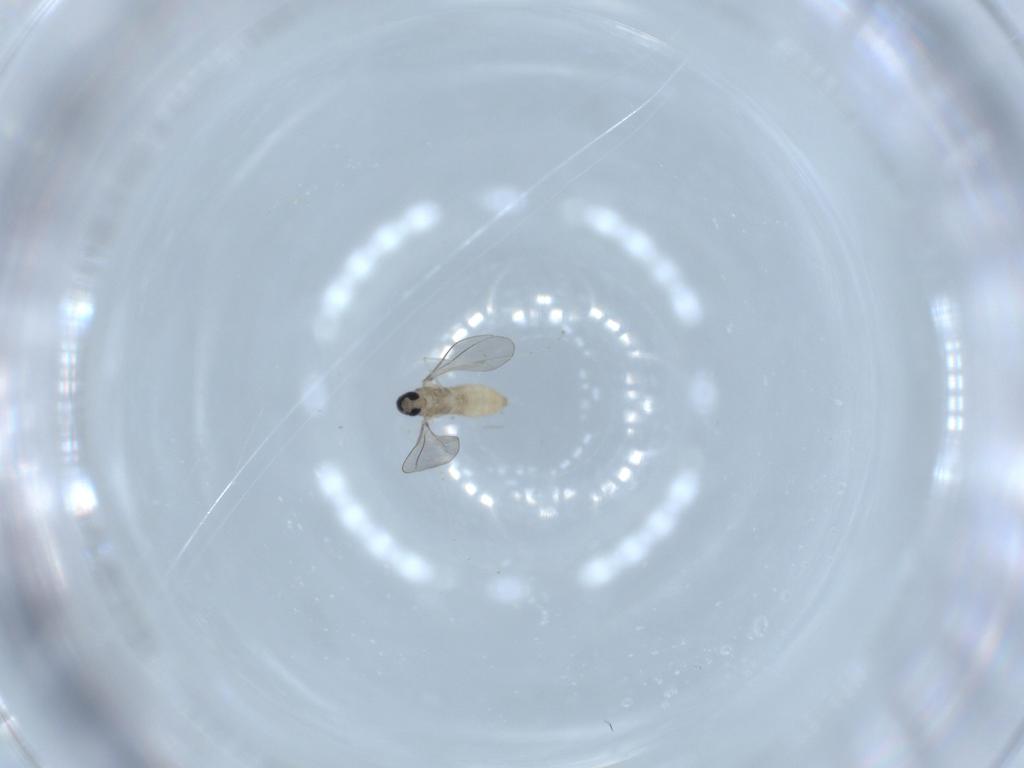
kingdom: Animalia
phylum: Arthropoda
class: Insecta
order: Diptera
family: Cecidomyiidae
